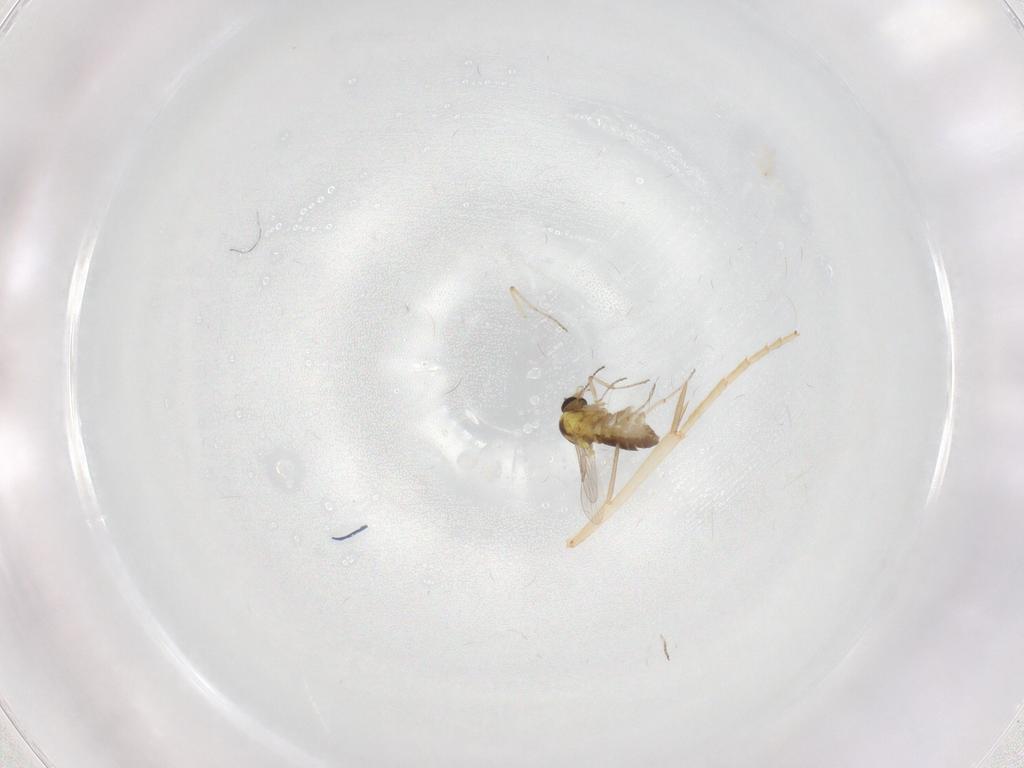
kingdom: Animalia
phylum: Arthropoda
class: Insecta
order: Diptera
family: Ceratopogonidae
